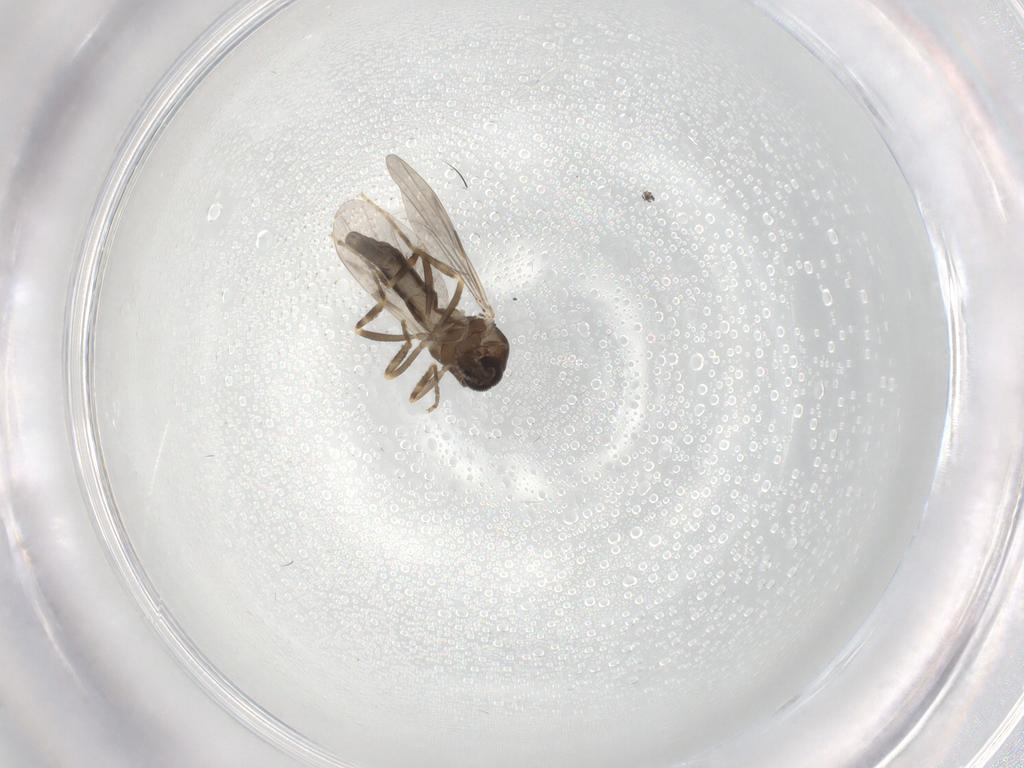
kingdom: Animalia
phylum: Arthropoda
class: Insecta
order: Diptera
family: Ceratopogonidae
